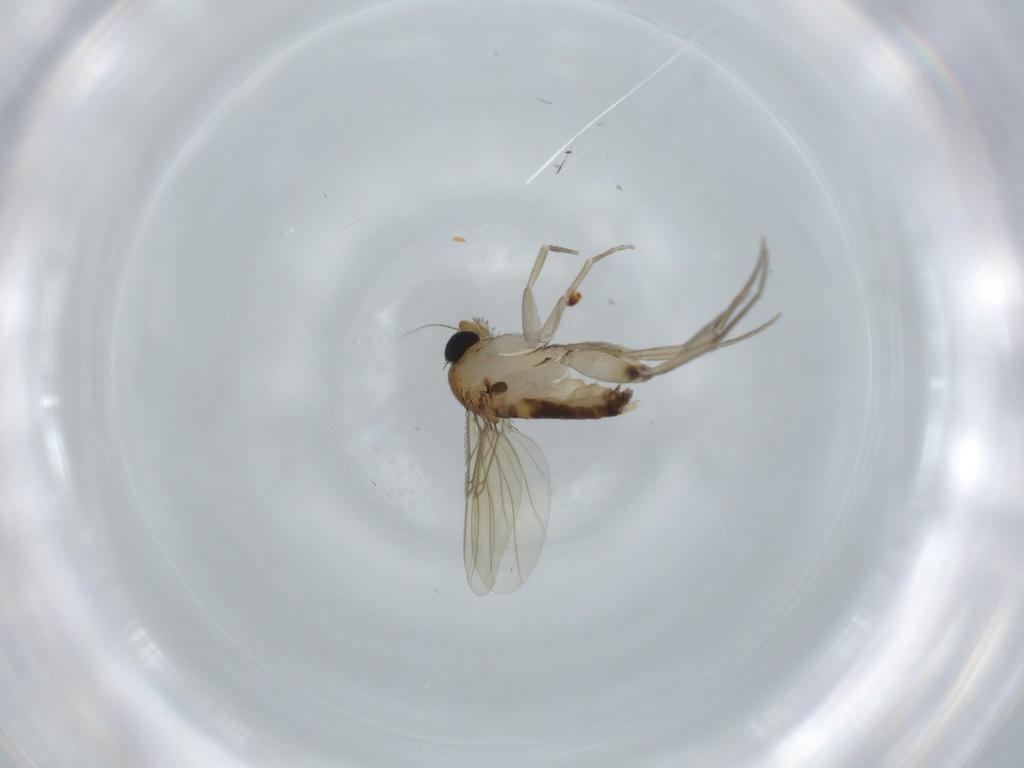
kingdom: Animalia
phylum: Arthropoda
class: Insecta
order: Diptera
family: Phoridae
